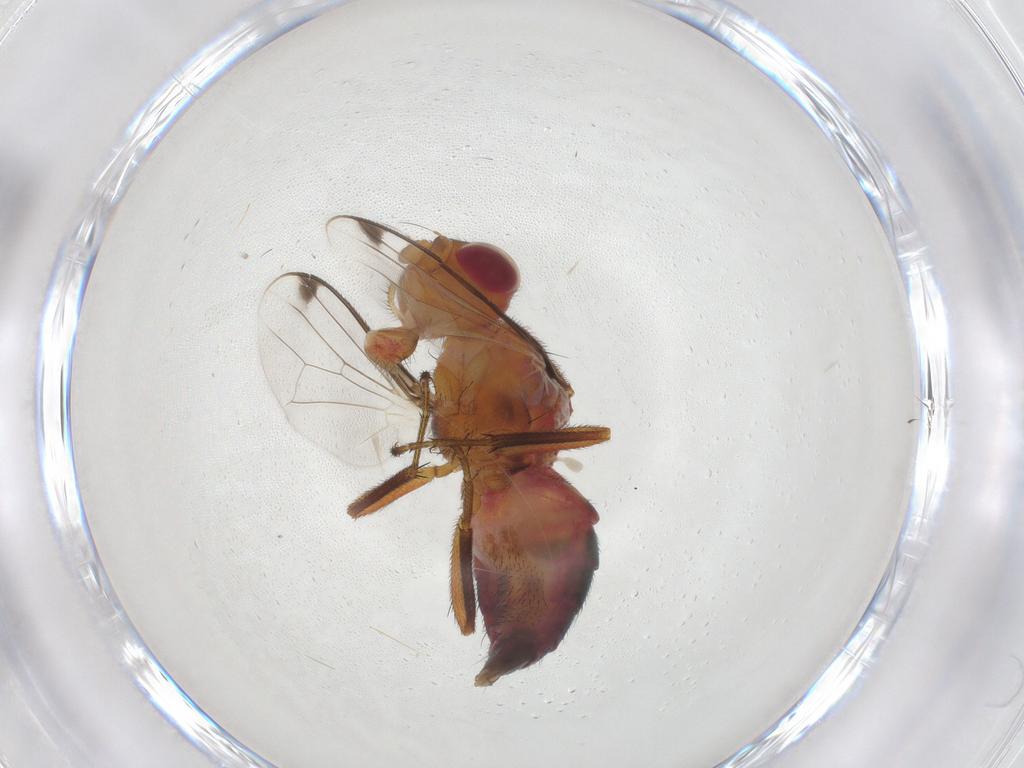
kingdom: Animalia
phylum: Arthropoda
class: Insecta
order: Diptera
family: Richardiidae
